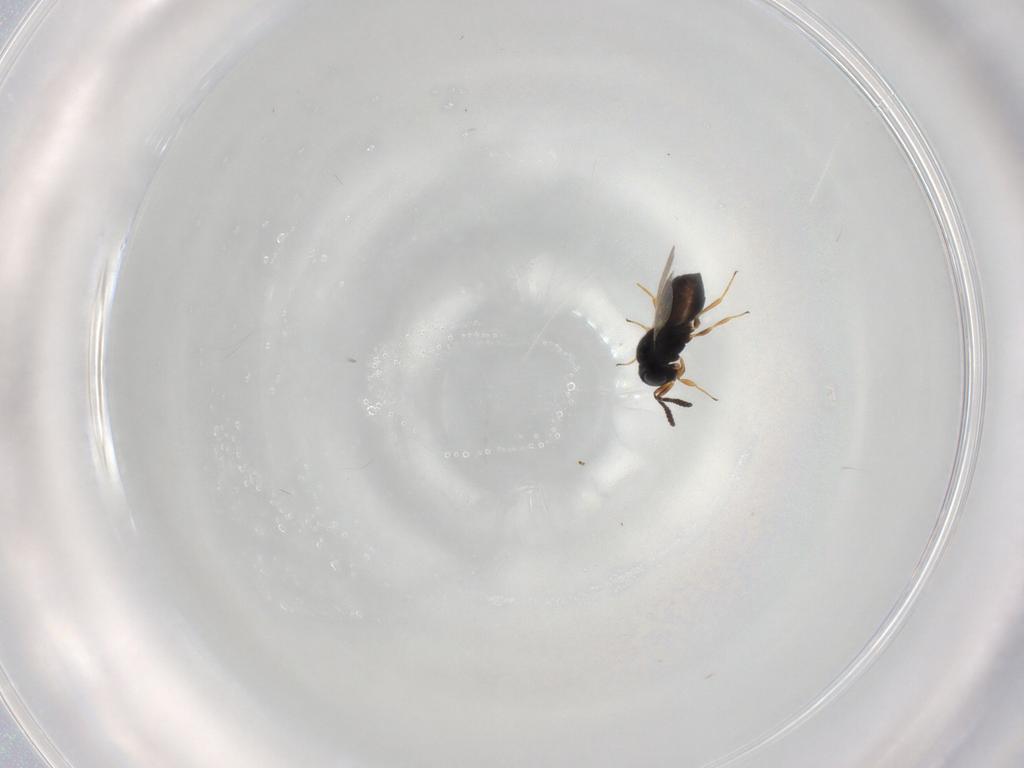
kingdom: Animalia
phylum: Arthropoda
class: Insecta
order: Hymenoptera
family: Scelionidae
